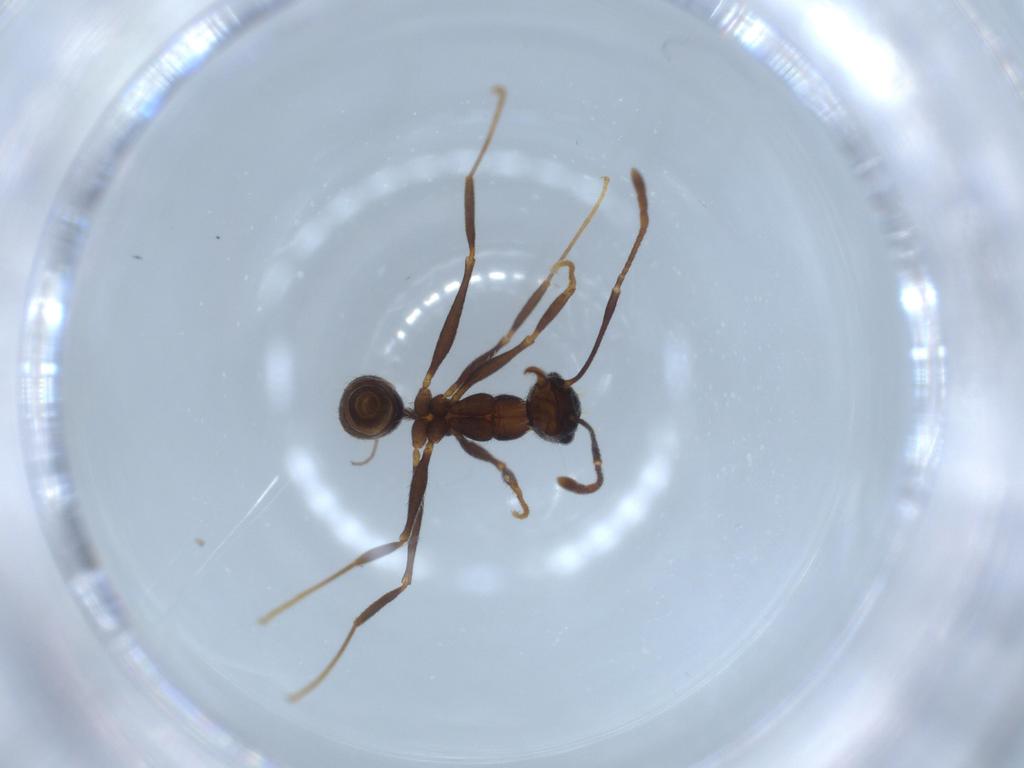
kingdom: Animalia
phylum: Arthropoda
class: Insecta
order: Hymenoptera
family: Formicidae
